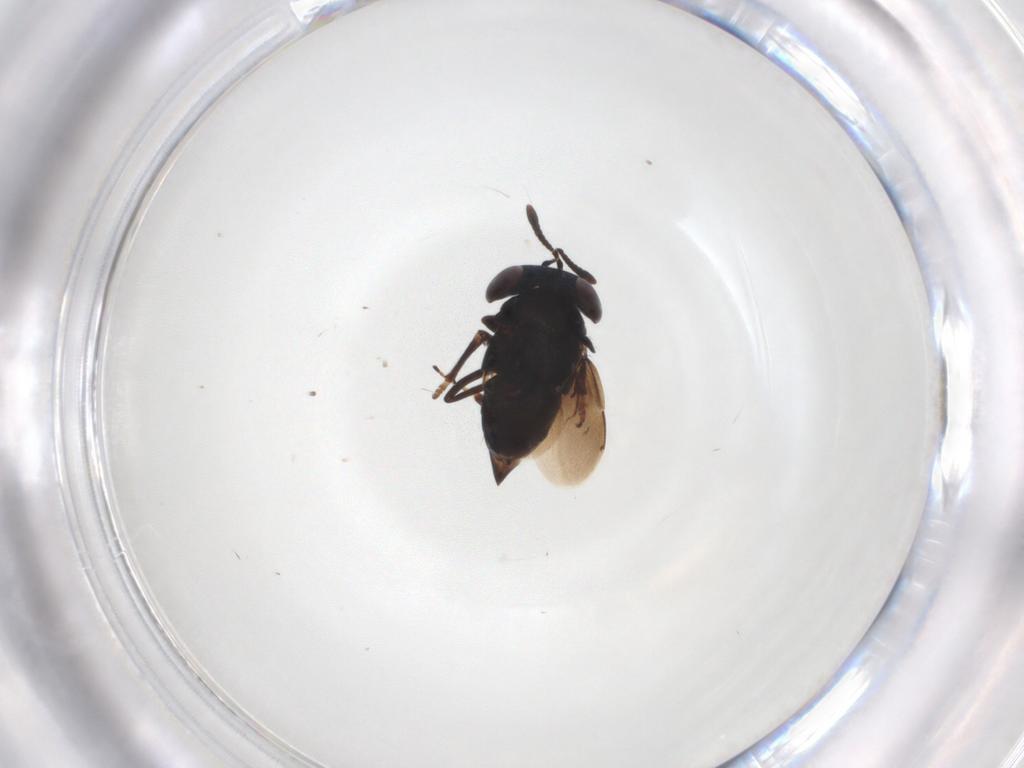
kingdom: Animalia
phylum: Arthropoda
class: Insecta
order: Hymenoptera
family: Encyrtidae
